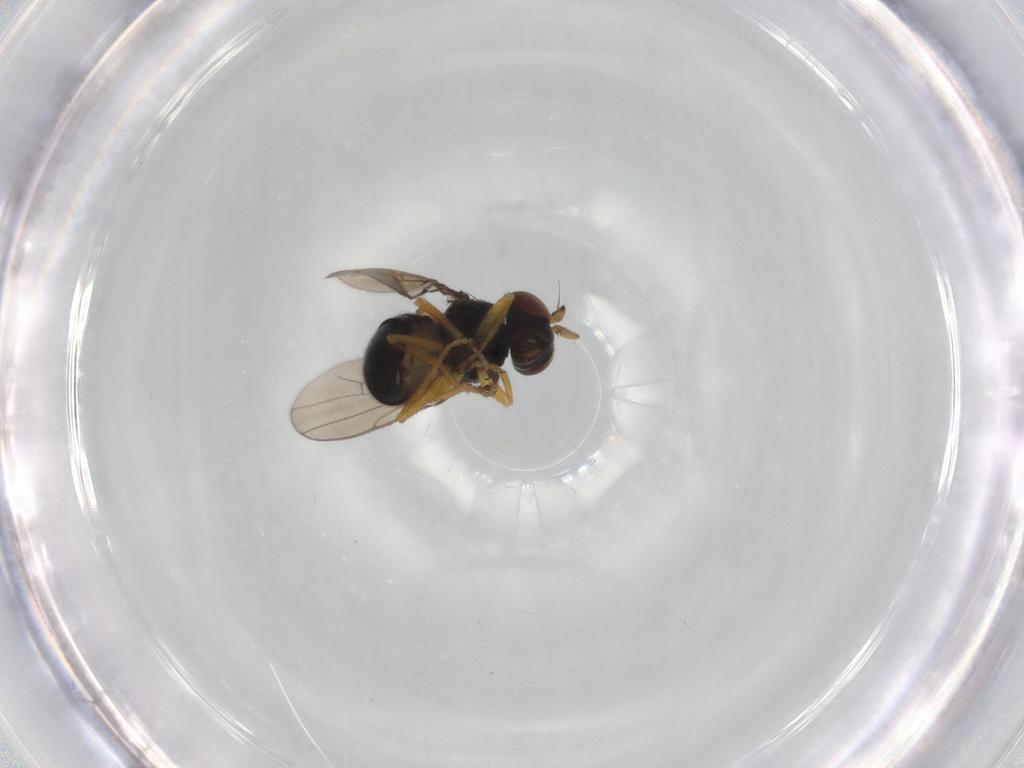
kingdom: Animalia
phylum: Arthropoda
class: Insecta
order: Diptera
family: Ephydridae
